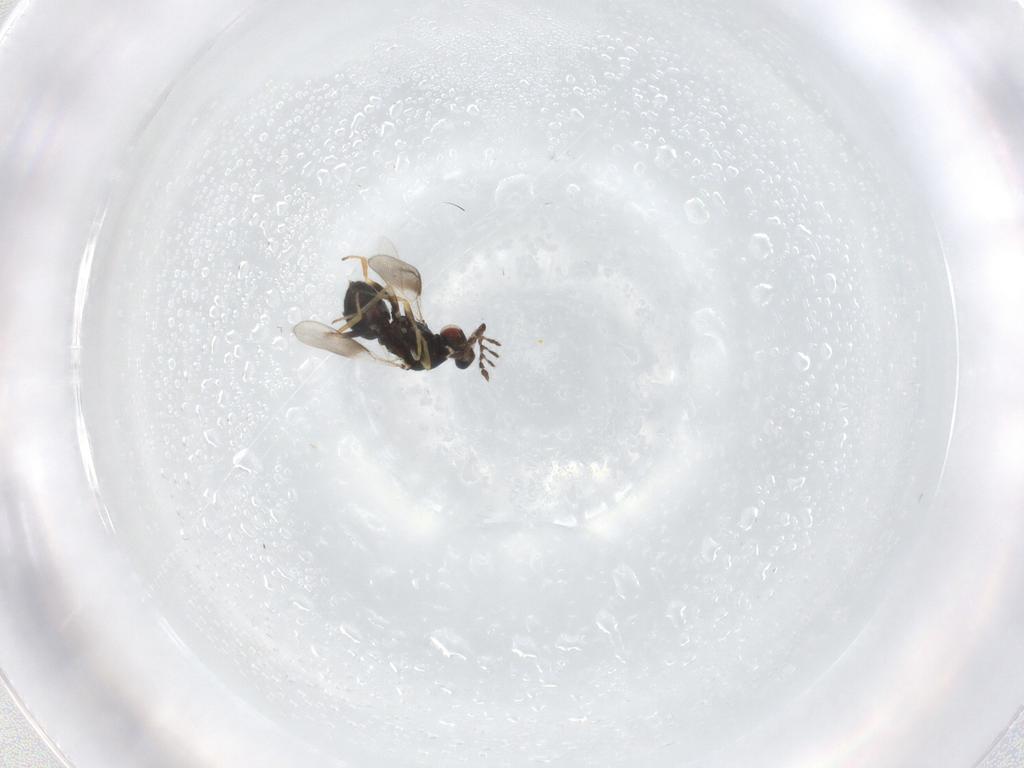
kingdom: Animalia
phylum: Arthropoda
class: Insecta
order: Hymenoptera
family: Eulophidae
